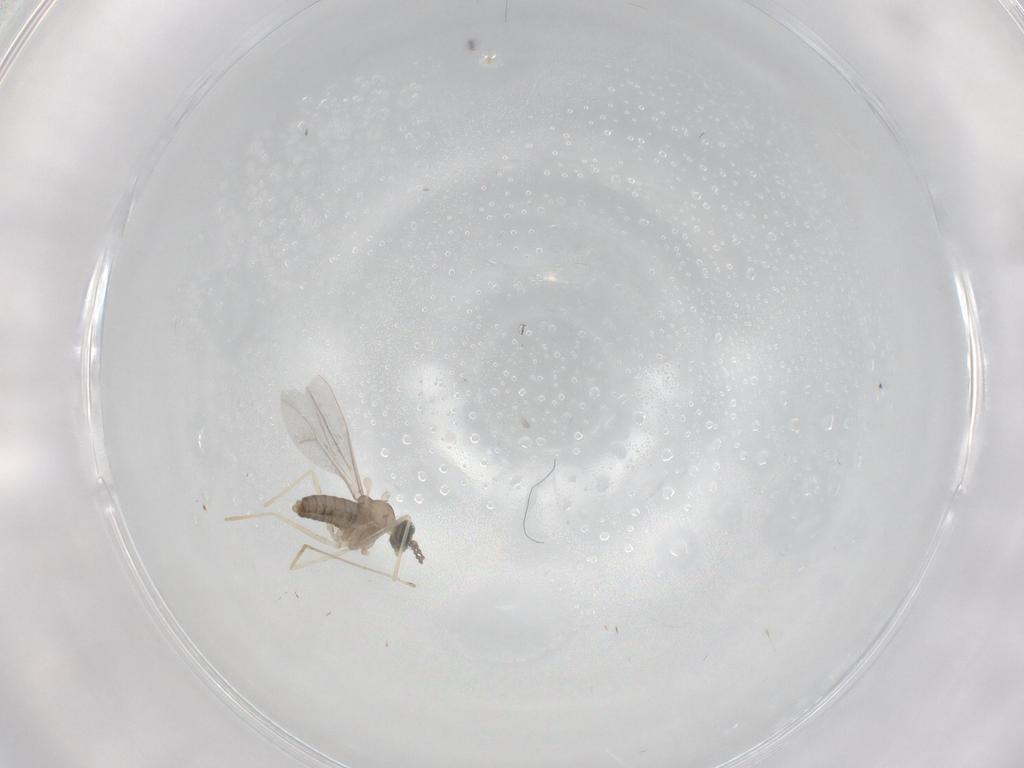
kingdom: Animalia
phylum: Arthropoda
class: Insecta
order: Diptera
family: Cecidomyiidae
